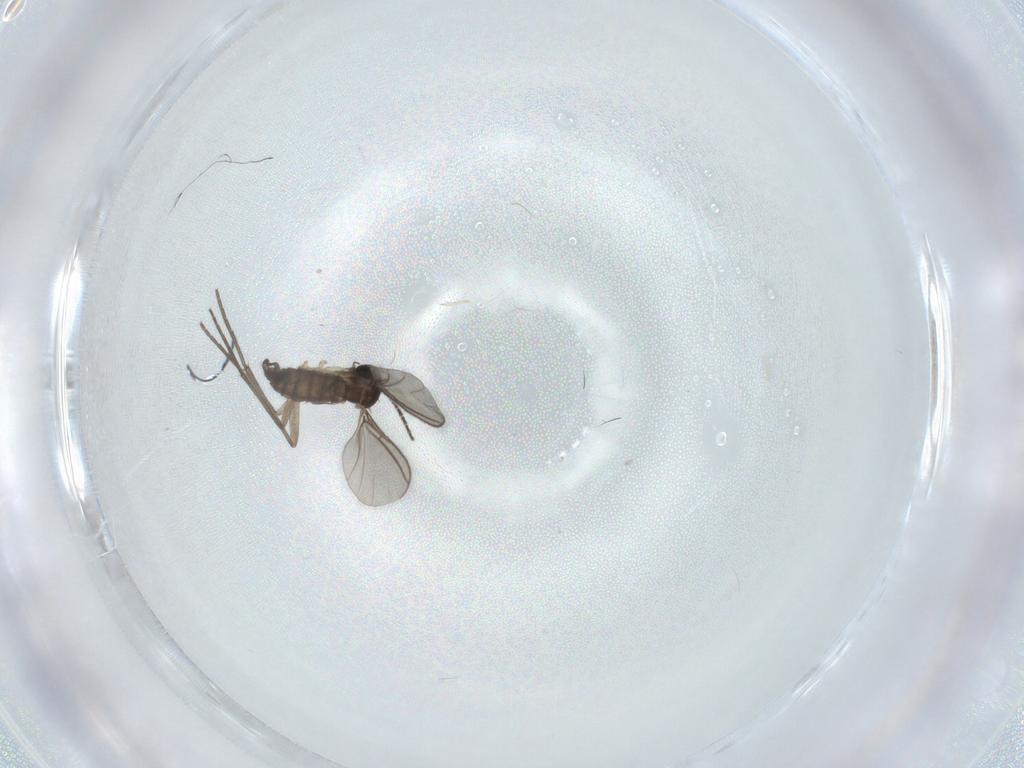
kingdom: Animalia
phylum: Arthropoda
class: Insecta
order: Diptera
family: Sciaridae
